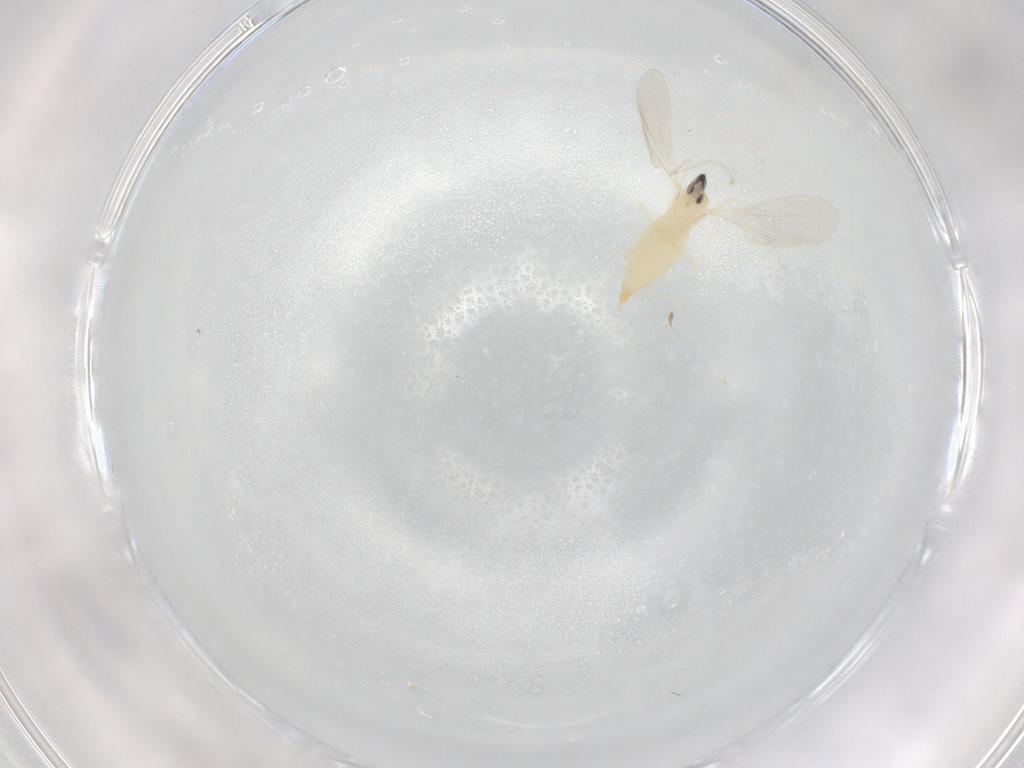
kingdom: Animalia
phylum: Arthropoda
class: Insecta
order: Diptera
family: Cecidomyiidae
